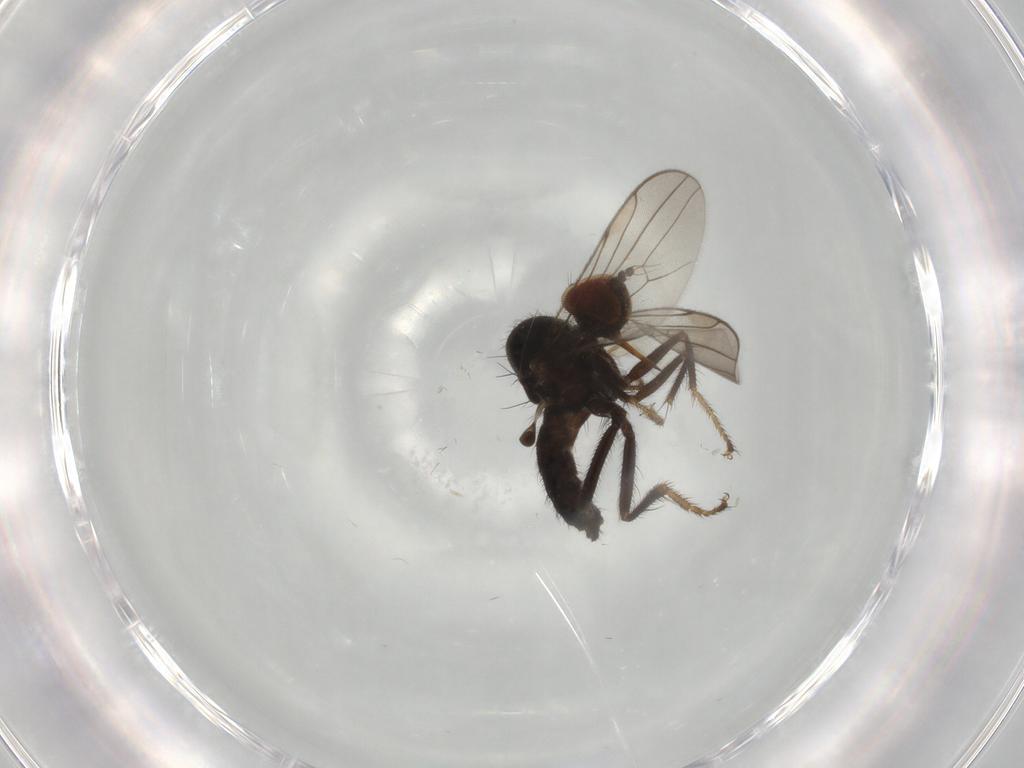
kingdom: Animalia
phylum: Arthropoda
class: Insecta
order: Diptera
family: Hybotidae
